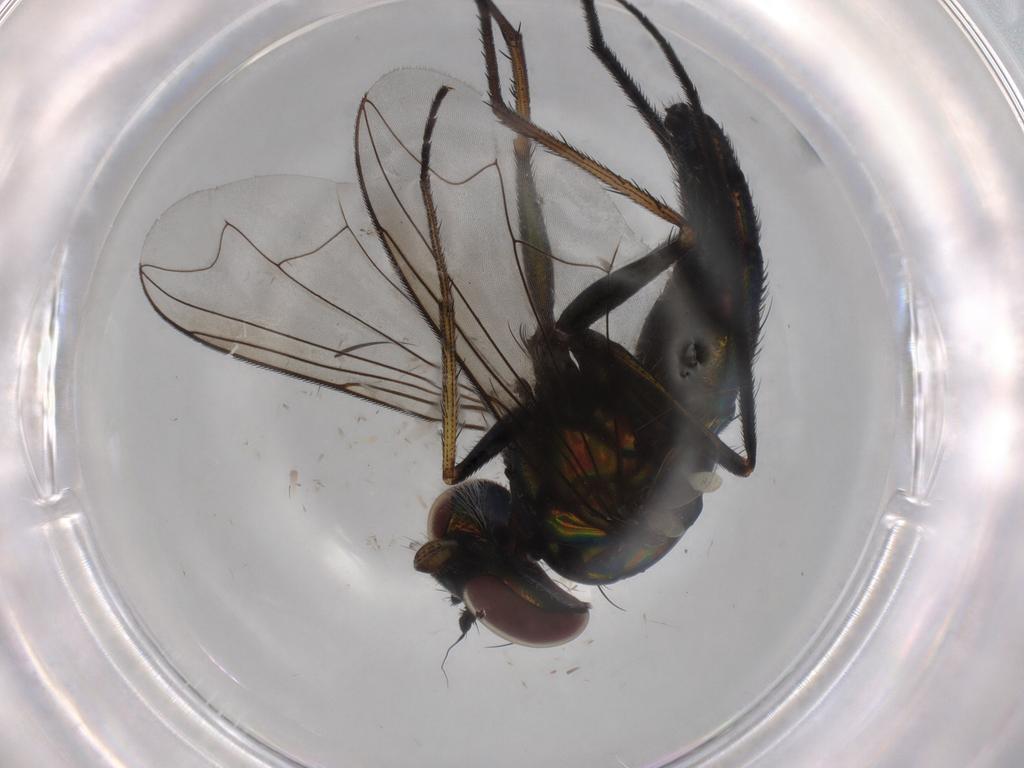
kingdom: Animalia
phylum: Arthropoda
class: Insecta
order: Diptera
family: Dolichopodidae
